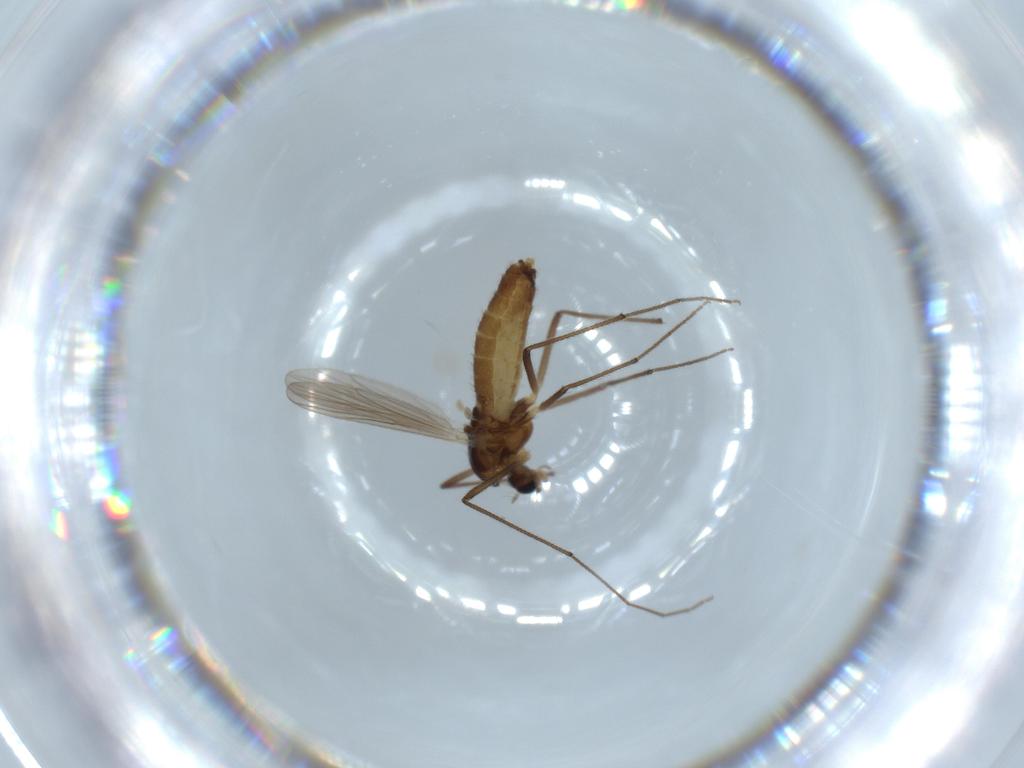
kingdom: Animalia
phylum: Arthropoda
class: Insecta
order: Diptera
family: Chironomidae
